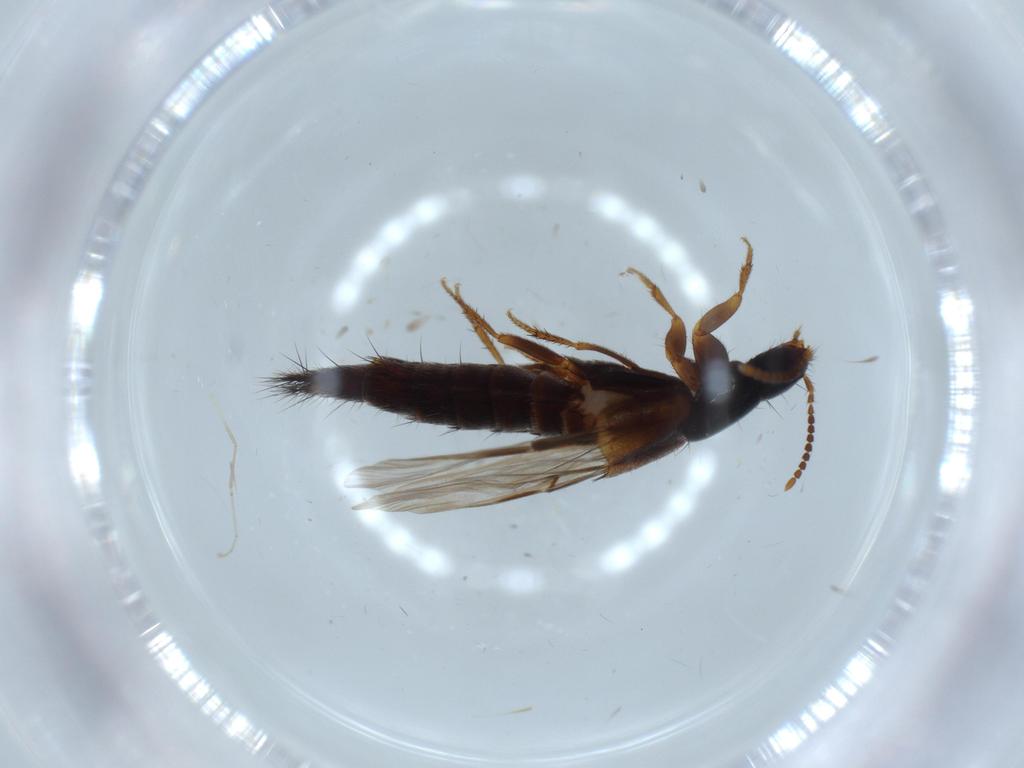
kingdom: Animalia
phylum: Arthropoda
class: Insecta
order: Coleoptera
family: Staphylinidae
